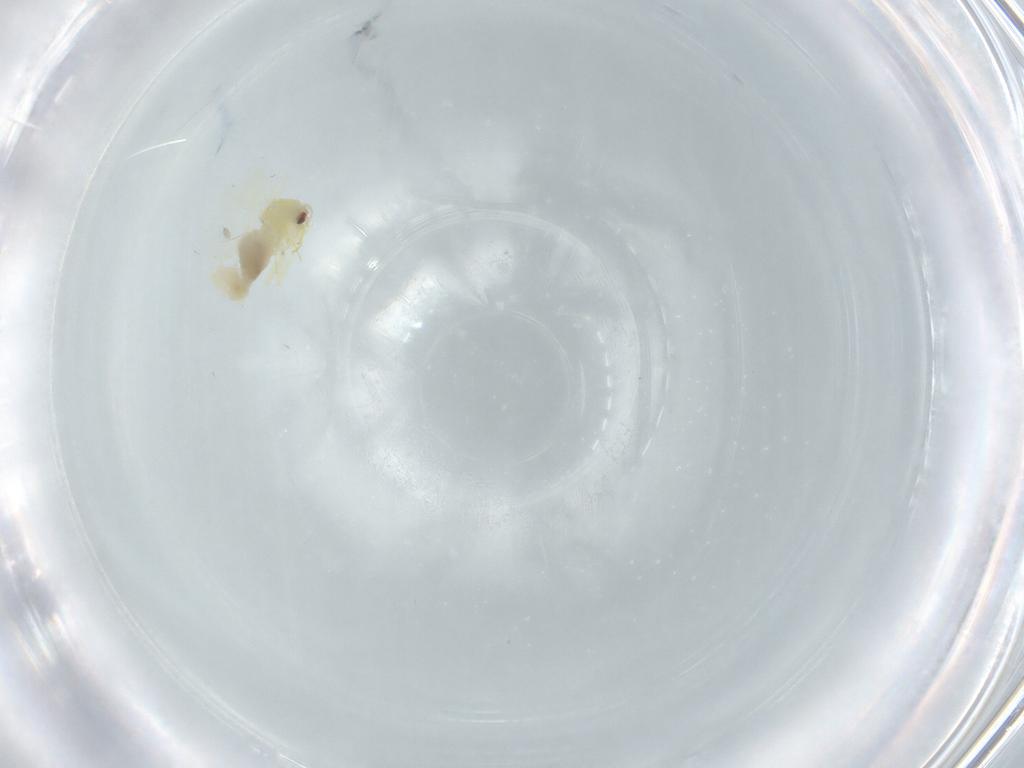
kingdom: Animalia
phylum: Arthropoda
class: Insecta
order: Hemiptera
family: Aleyrodidae
